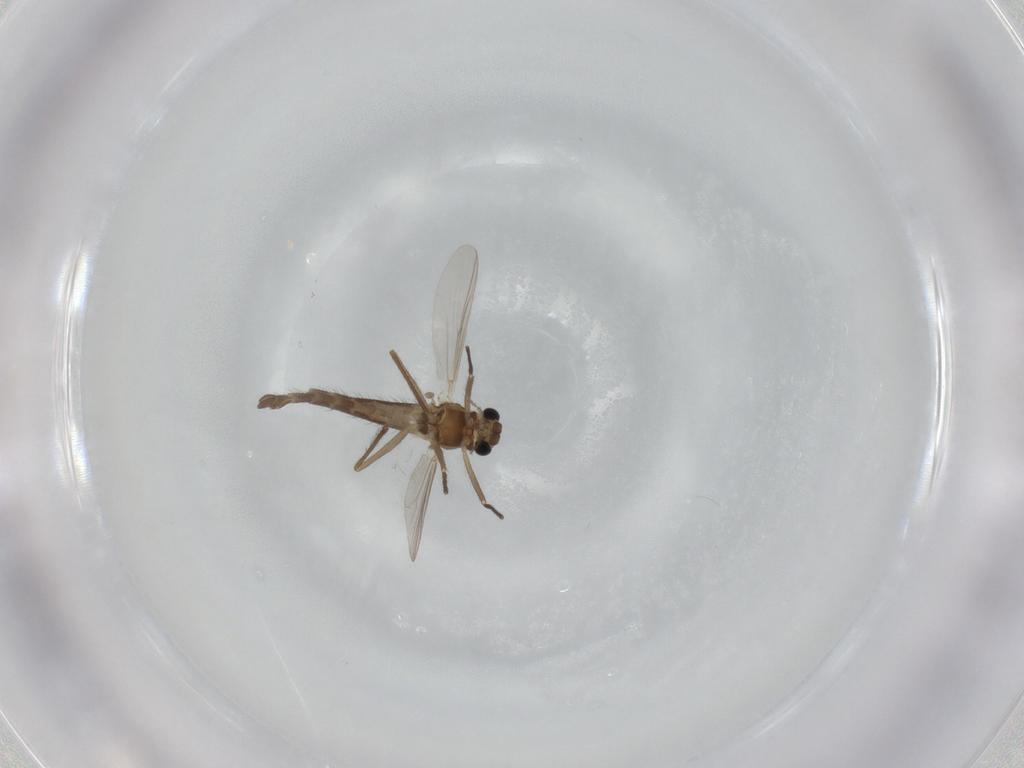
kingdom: Animalia
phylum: Arthropoda
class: Insecta
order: Diptera
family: Chironomidae
